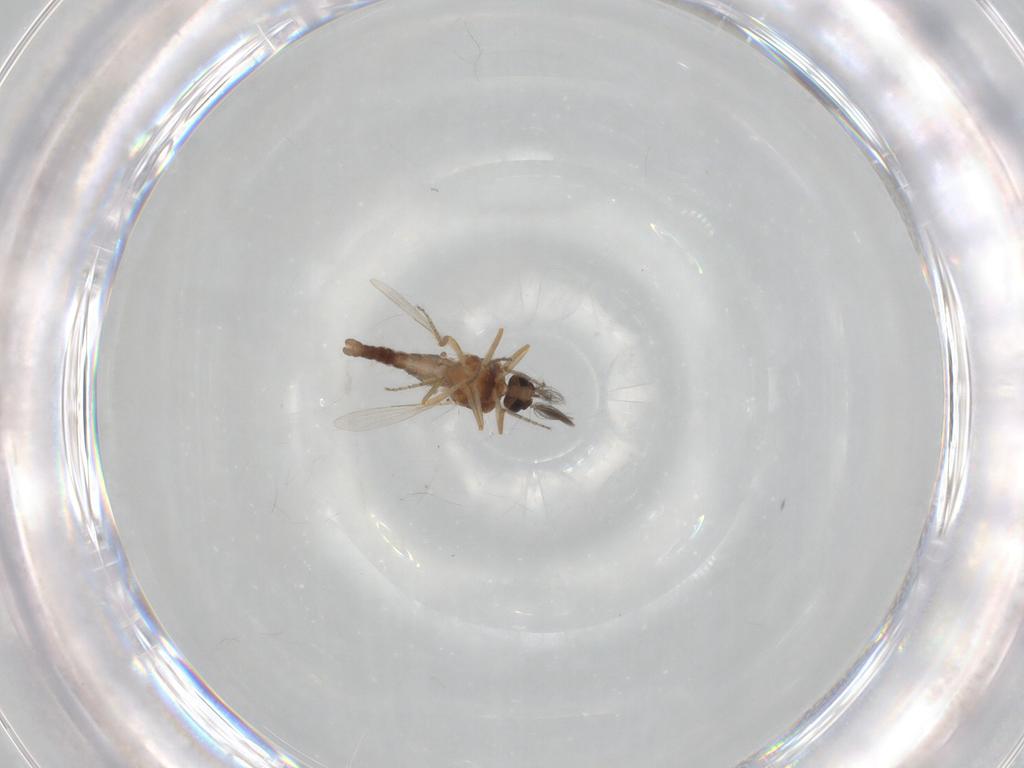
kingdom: Animalia
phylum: Arthropoda
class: Insecta
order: Diptera
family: Ceratopogonidae
